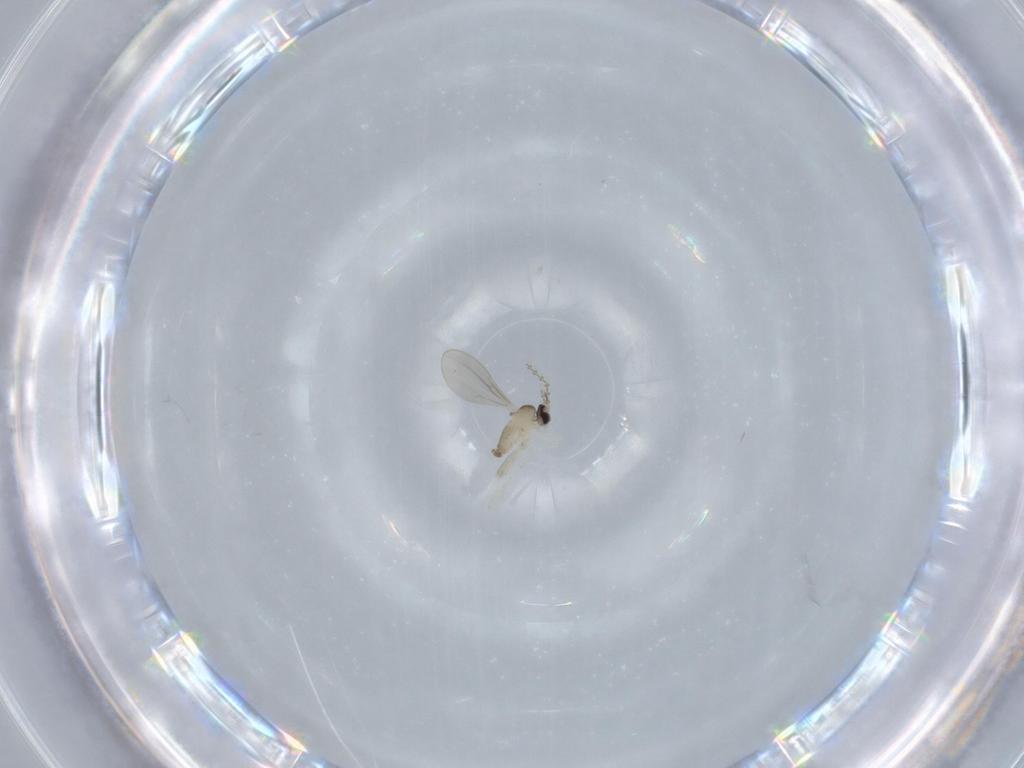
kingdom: Animalia
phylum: Arthropoda
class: Insecta
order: Diptera
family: Cecidomyiidae
